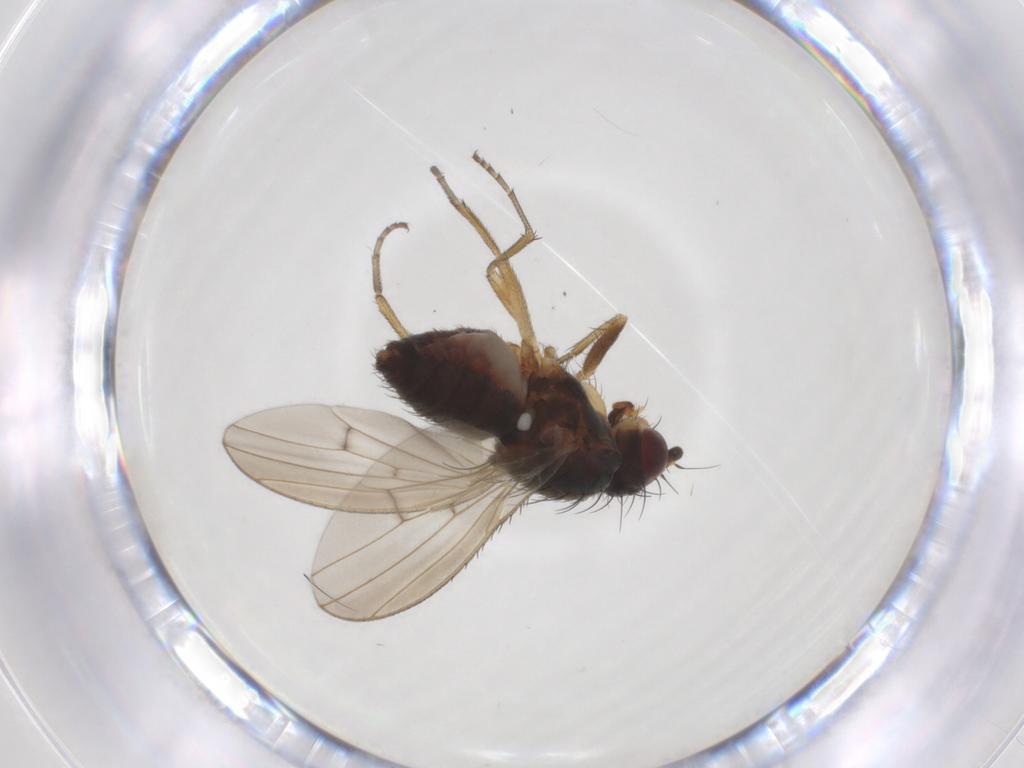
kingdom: Animalia
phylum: Arthropoda
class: Insecta
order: Diptera
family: Heleomyzidae
